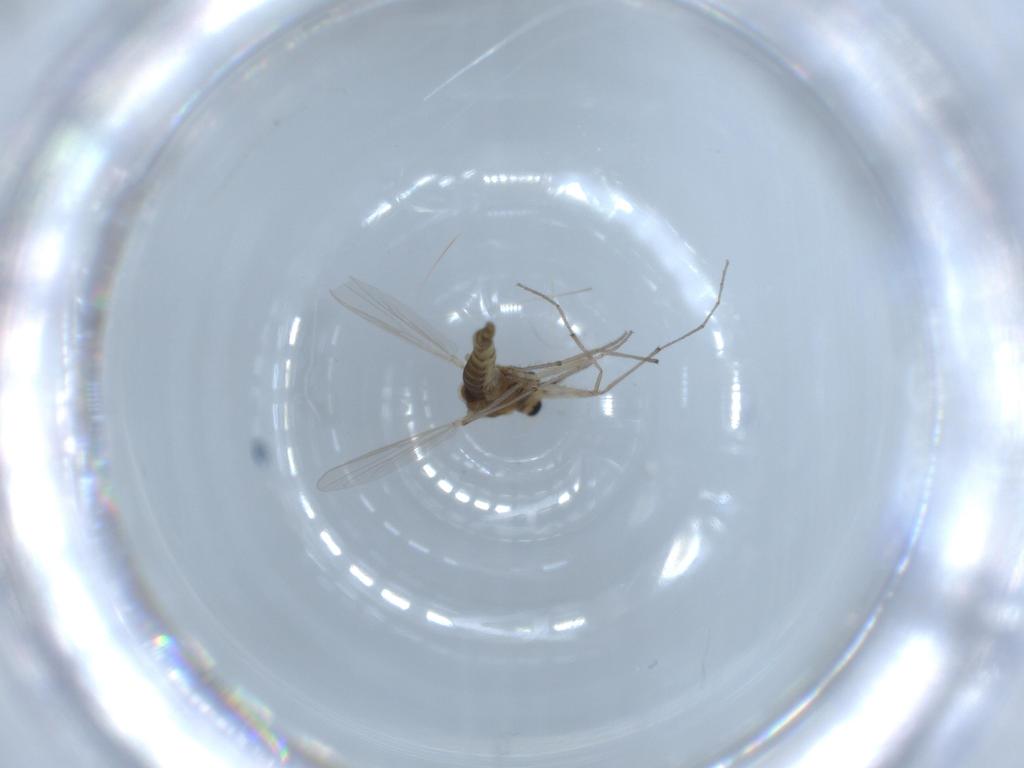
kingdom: Animalia
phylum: Arthropoda
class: Insecta
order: Diptera
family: Chironomidae
